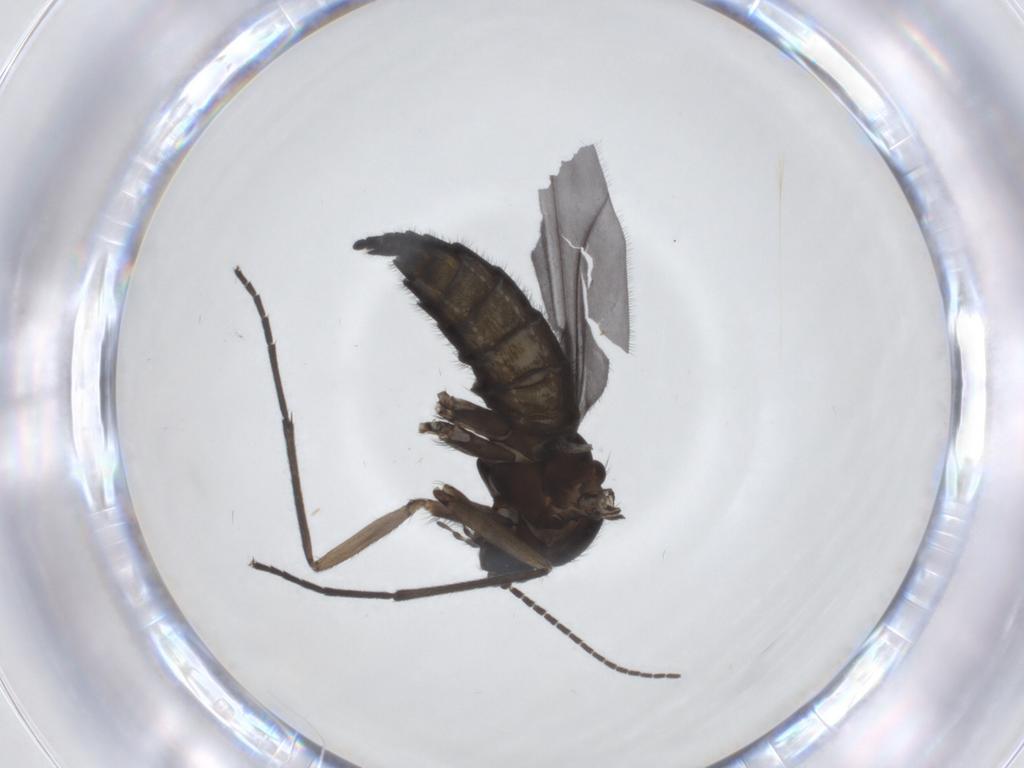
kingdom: Animalia
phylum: Arthropoda
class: Insecta
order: Diptera
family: Sciaridae
